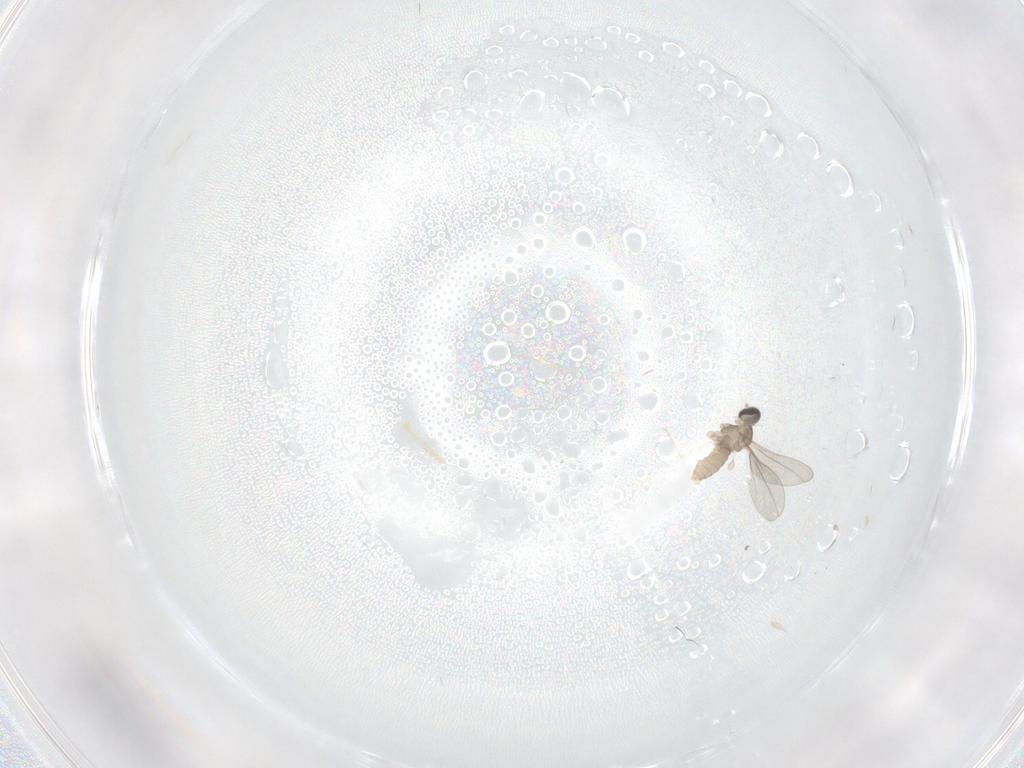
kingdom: Animalia
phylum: Arthropoda
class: Insecta
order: Diptera
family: Cecidomyiidae
